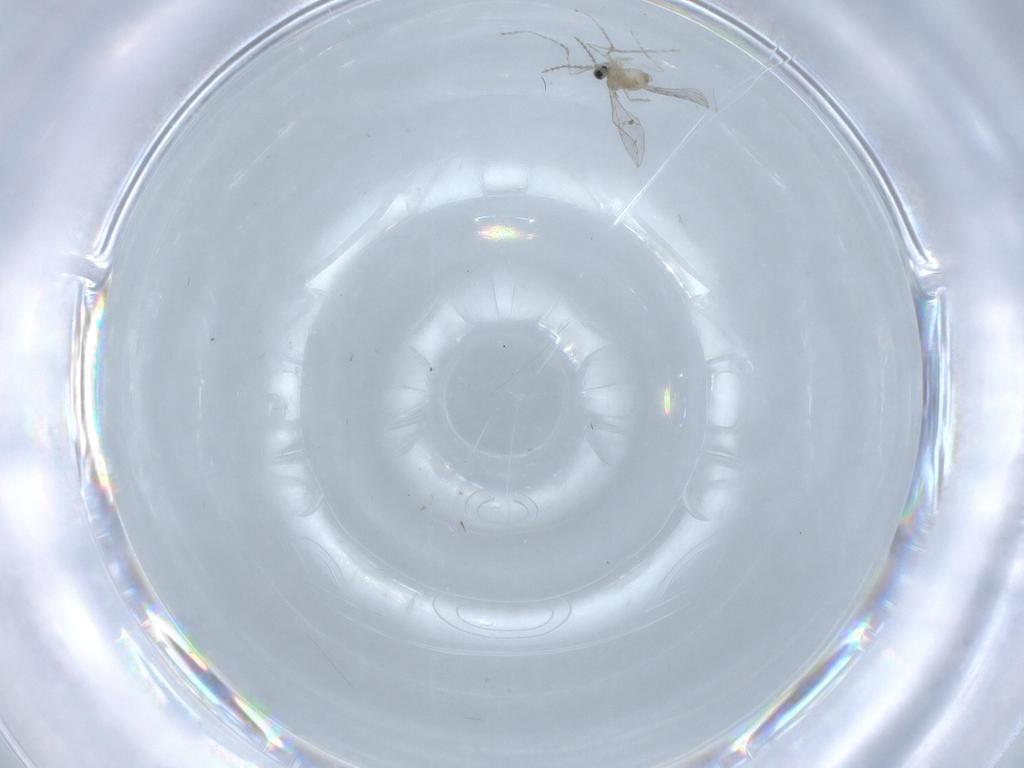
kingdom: Animalia
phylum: Arthropoda
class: Insecta
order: Diptera
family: Cecidomyiidae
